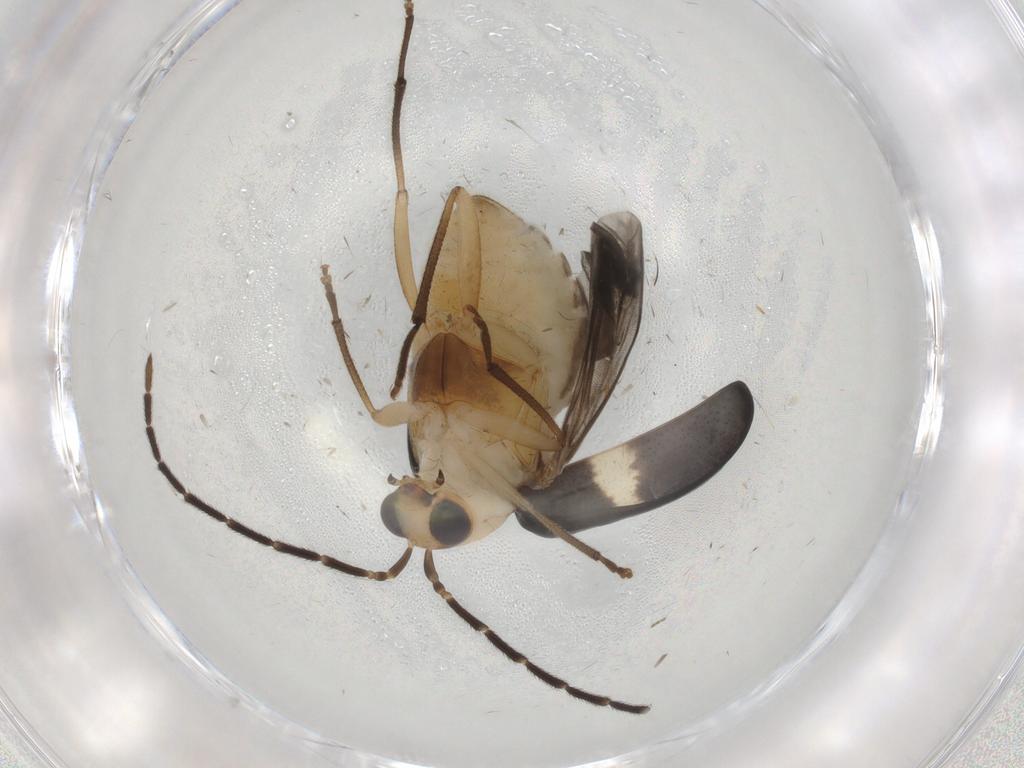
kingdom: Animalia
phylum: Arthropoda
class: Insecta
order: Coleoptera
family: Chrysomelidae
